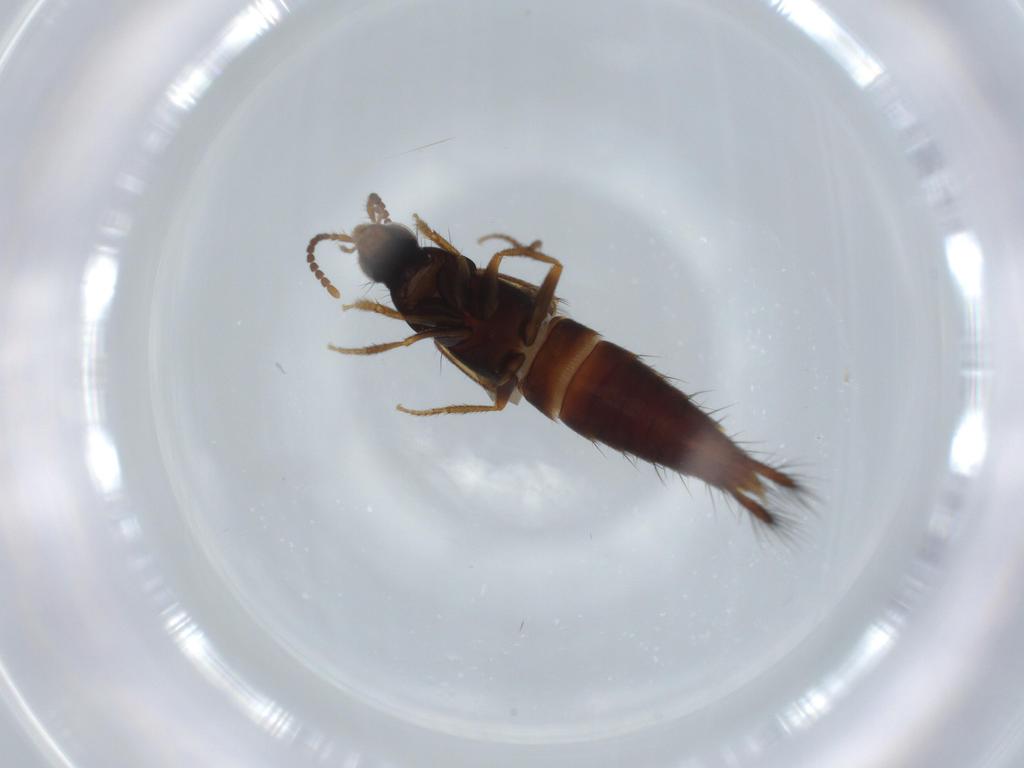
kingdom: Animalia
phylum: Arthropoda
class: Insecta
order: Coleoptera
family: Staphylinidae
